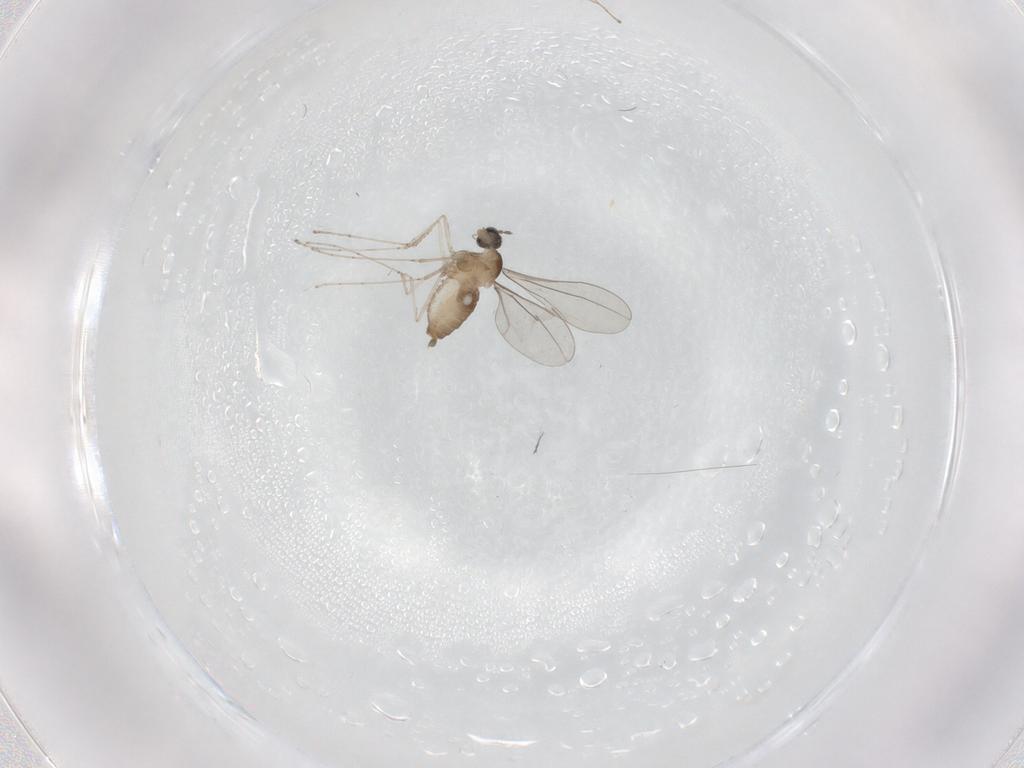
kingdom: Animalia
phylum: Arthropoda
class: Insecta
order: Diptera
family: Cecidomyiidae
